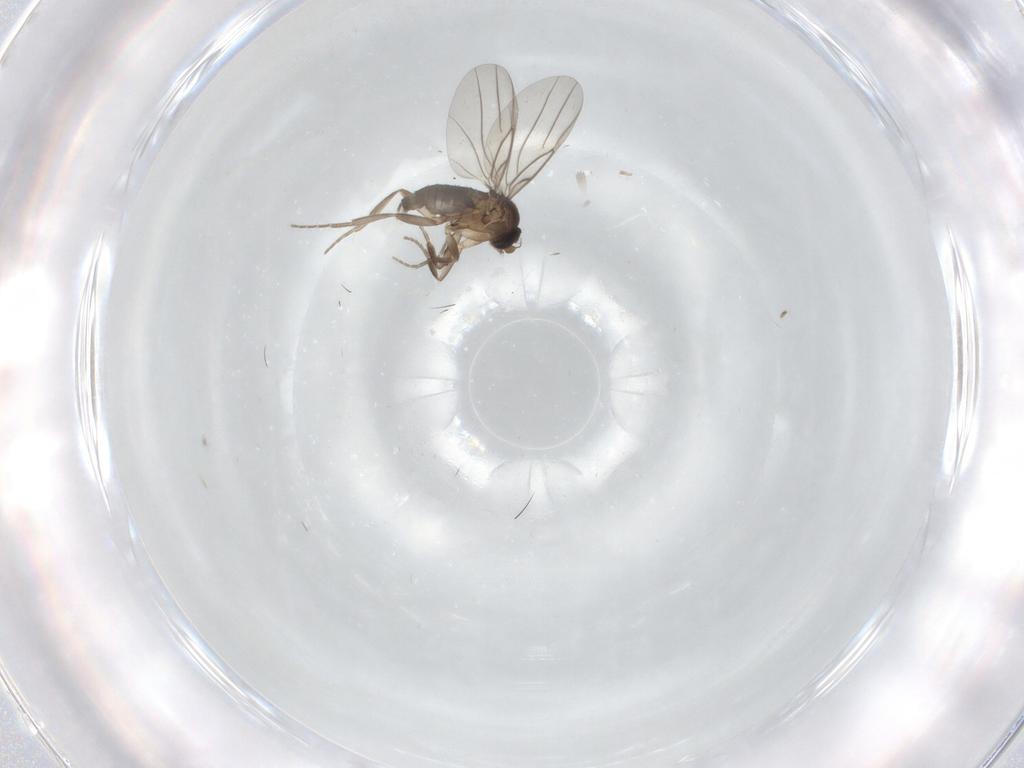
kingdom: Animalia
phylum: Arthropoda
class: Insecta
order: Diptera
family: Phoridae
